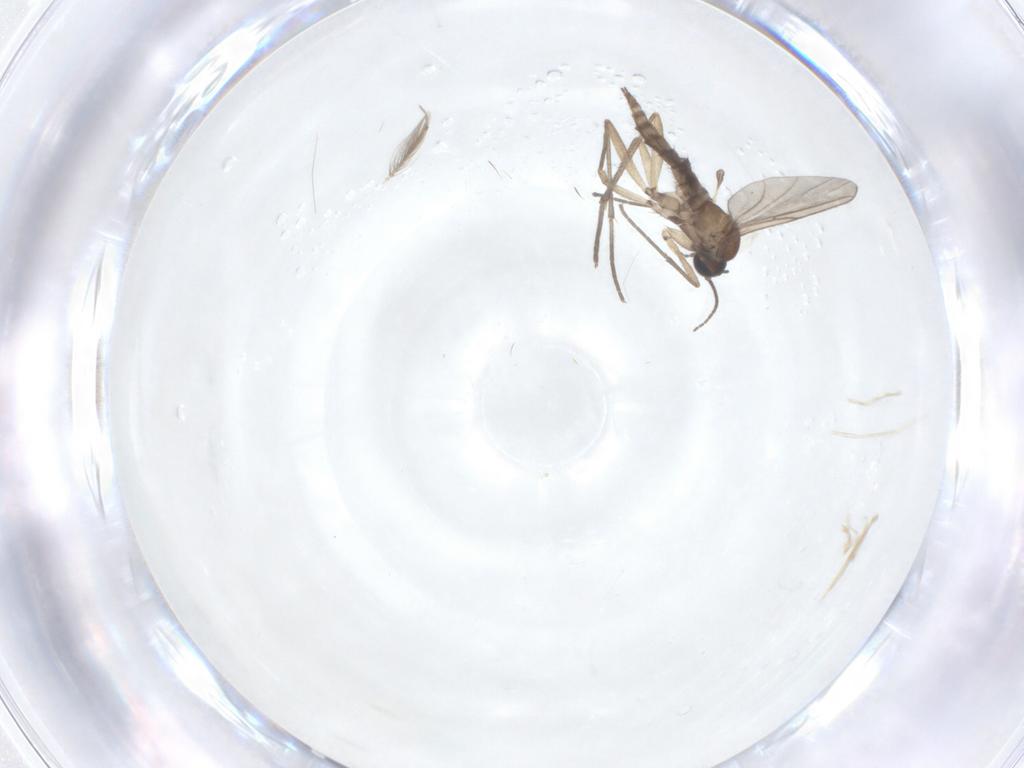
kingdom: Animalia
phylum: Arthropoda
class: Insecta
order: Diptera
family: Sciaridae
